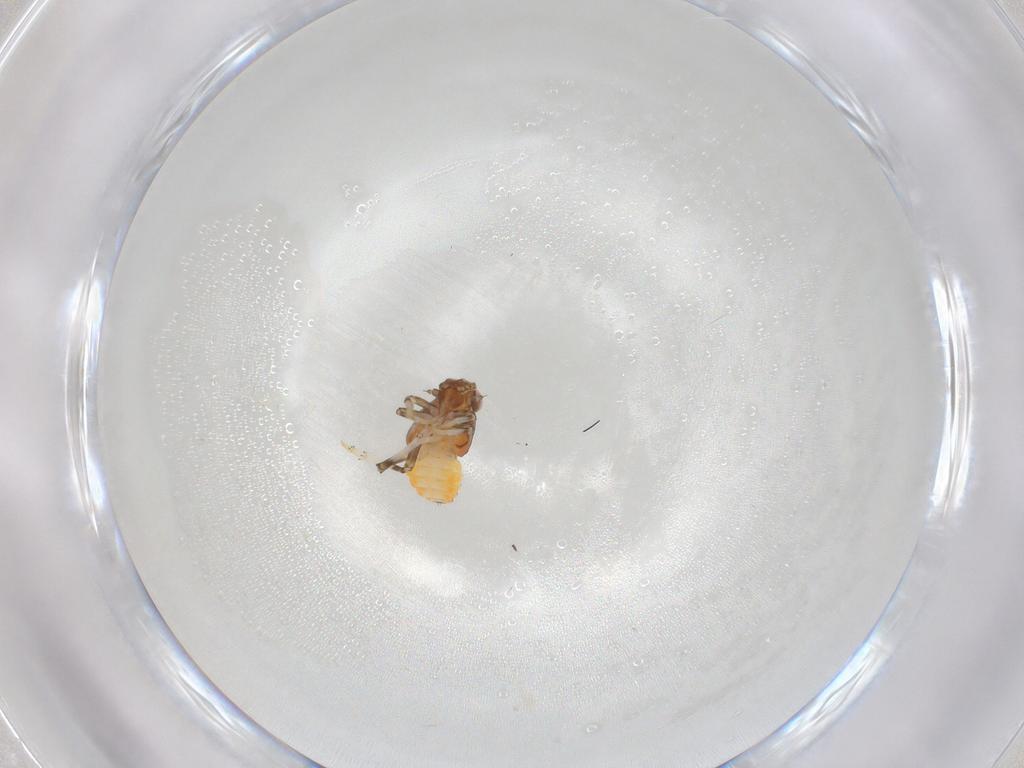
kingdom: Animalia
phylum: Arthropoda
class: Insecta
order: Hemiptera
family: Issidae
